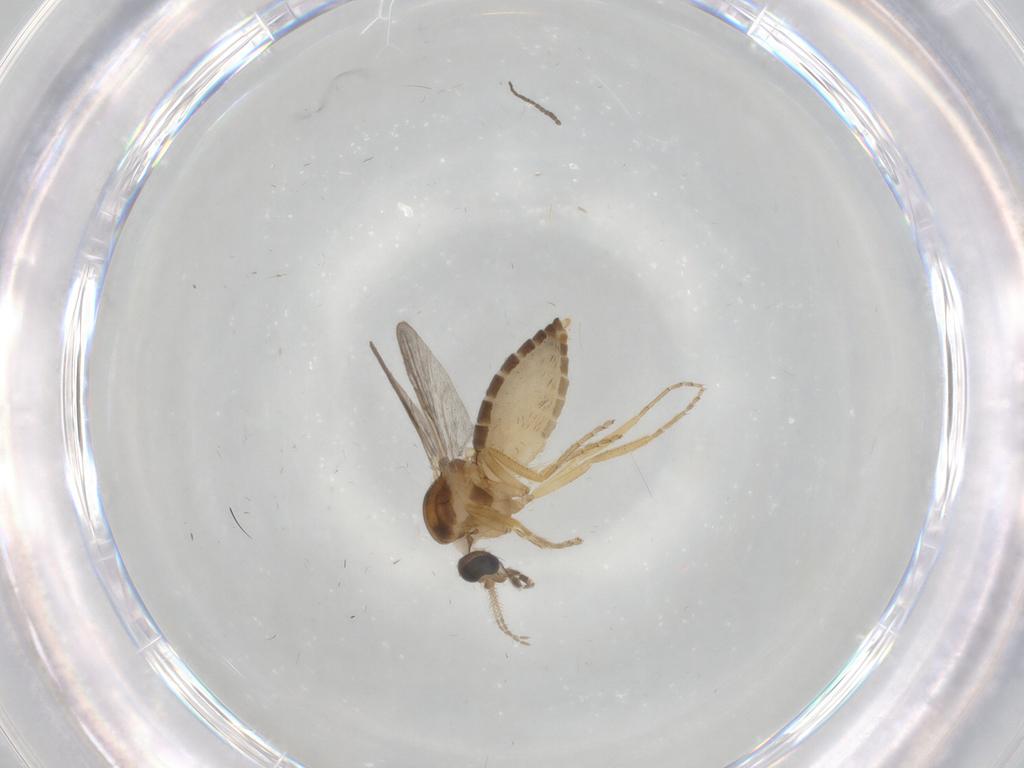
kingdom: Animalia
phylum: Arthropoda
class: Insecta
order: Diptera
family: Ceratopogonidae
